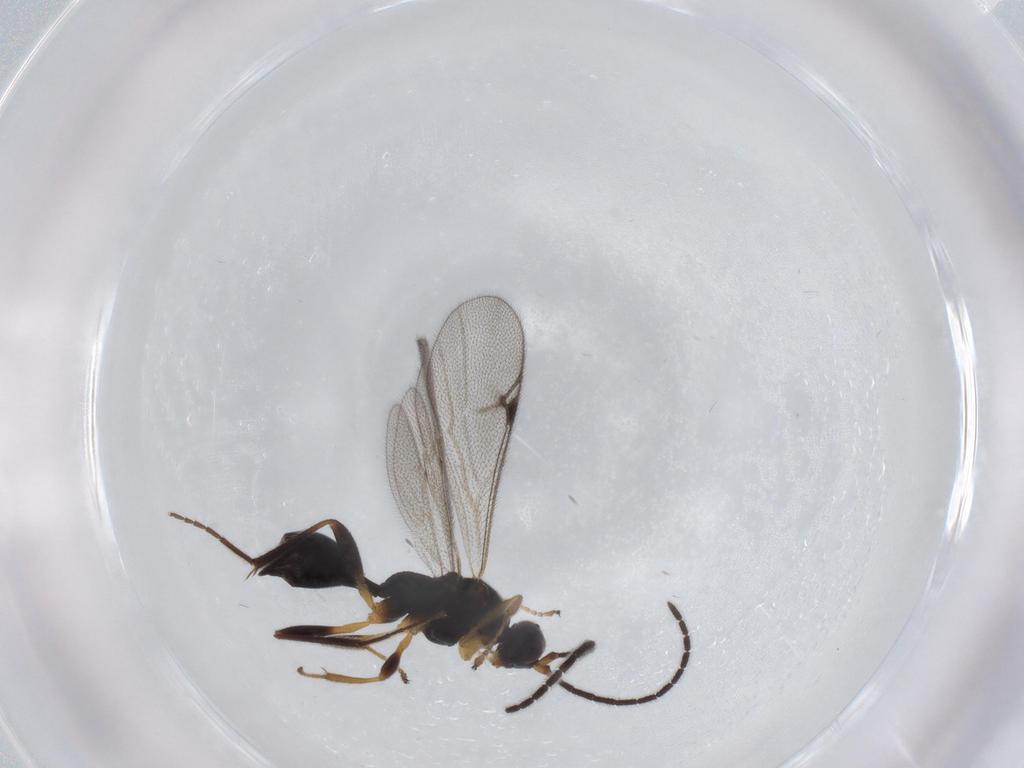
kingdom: Animalia
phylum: Arthropoda
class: Insecta
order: Hymenoptera
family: Proctotrupidae
